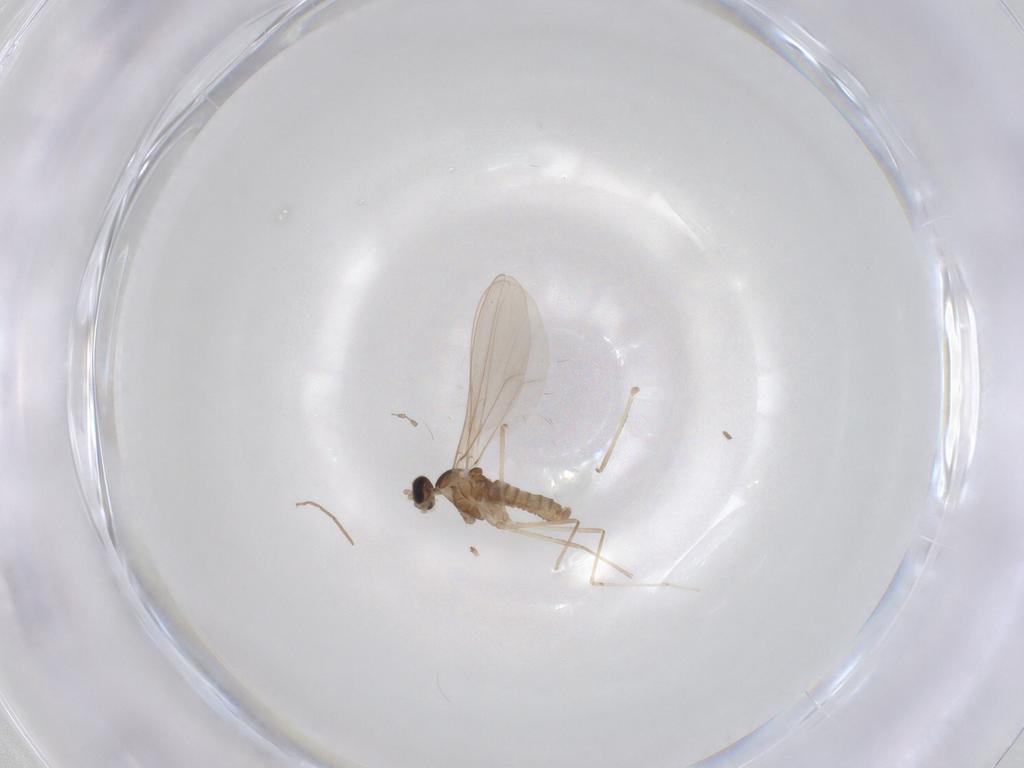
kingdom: Animalia
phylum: Arthropoda
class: Insecta
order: Diptera
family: Cecidomyiidae
